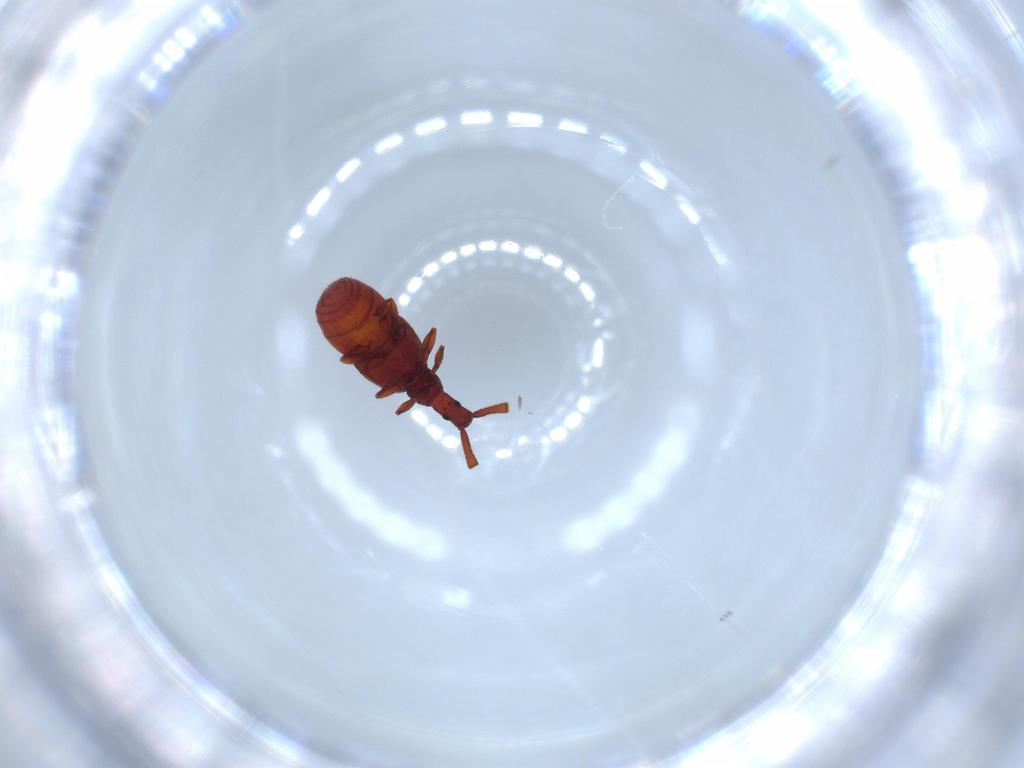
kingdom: Animalia
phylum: Arthropoda
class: Insecta
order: Coleoptera
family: Staphylinidae
